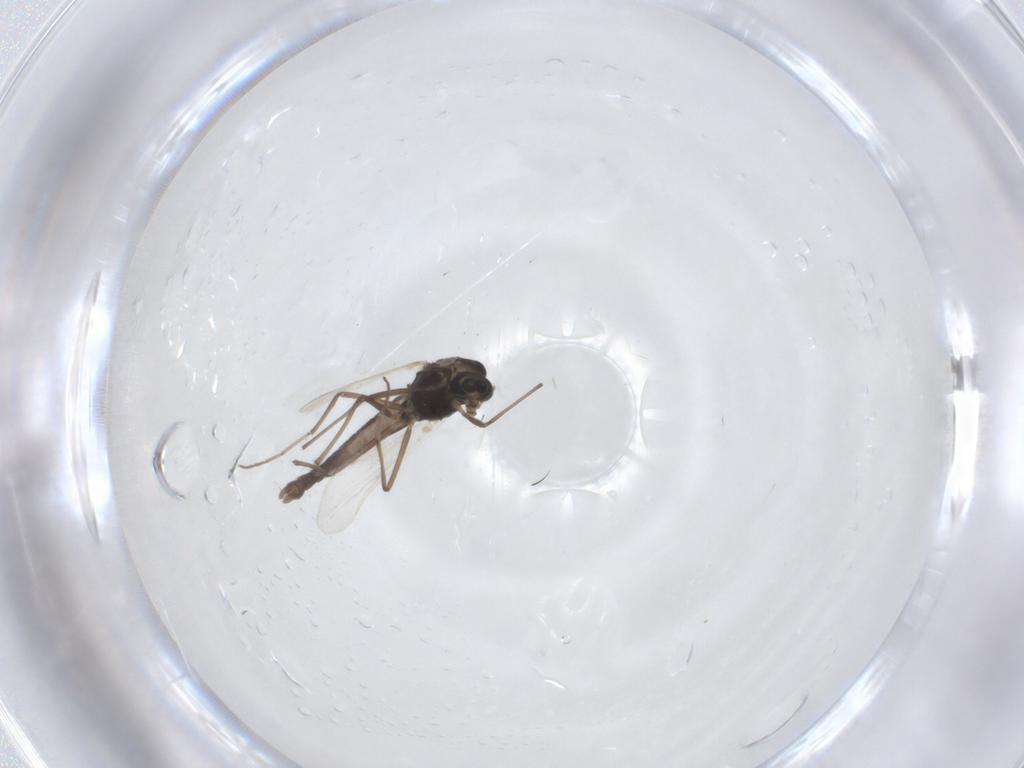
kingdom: Animalia
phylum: Arthropoda
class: Insecta
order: Diptera
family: Chironomidae
